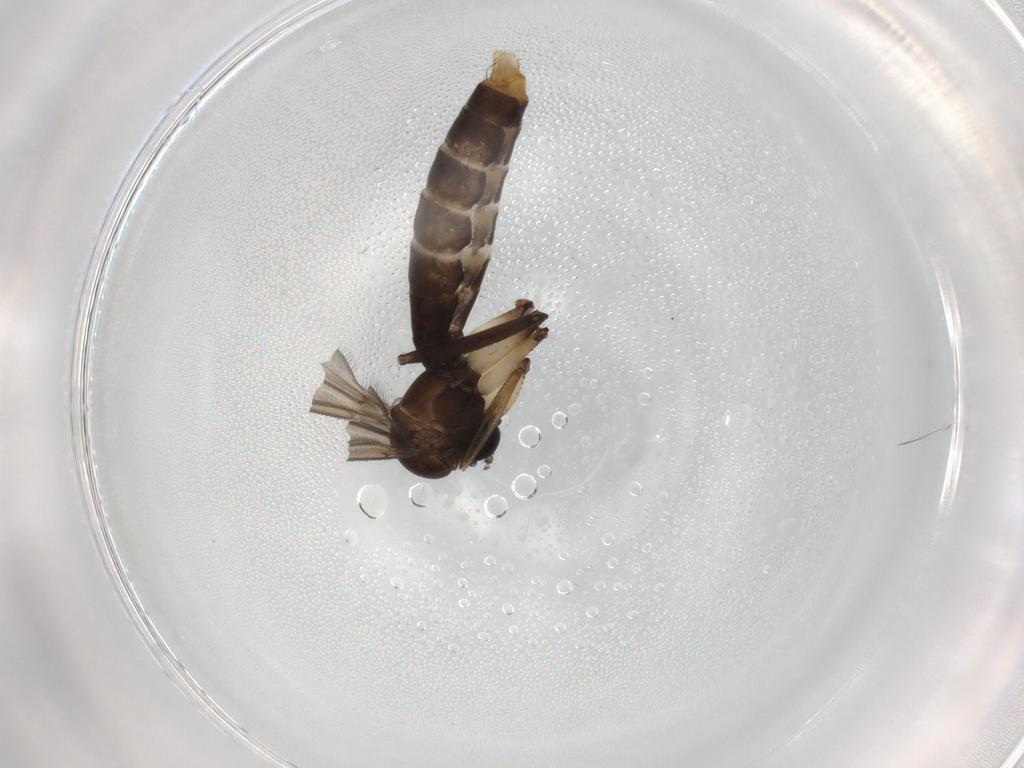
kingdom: Animalia
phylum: Arthropoda
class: Insecta
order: Diptera
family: Ditomyiidae
